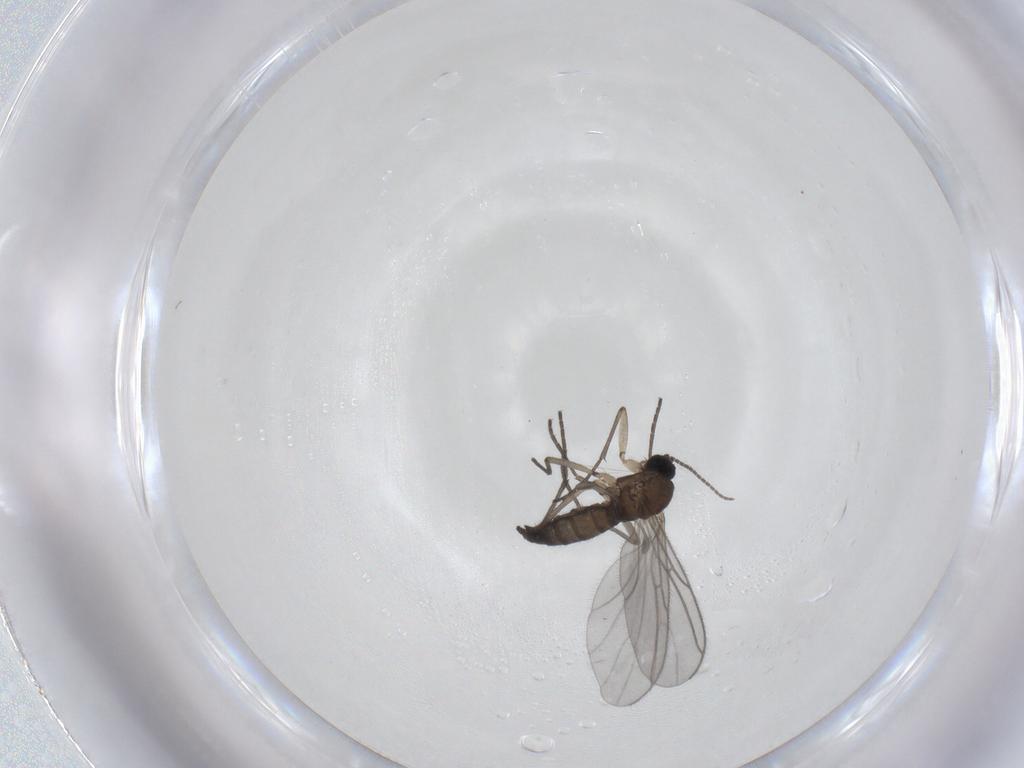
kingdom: Animalia
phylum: Arthropoda
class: Insecta
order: Diptera
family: Sciaridae
